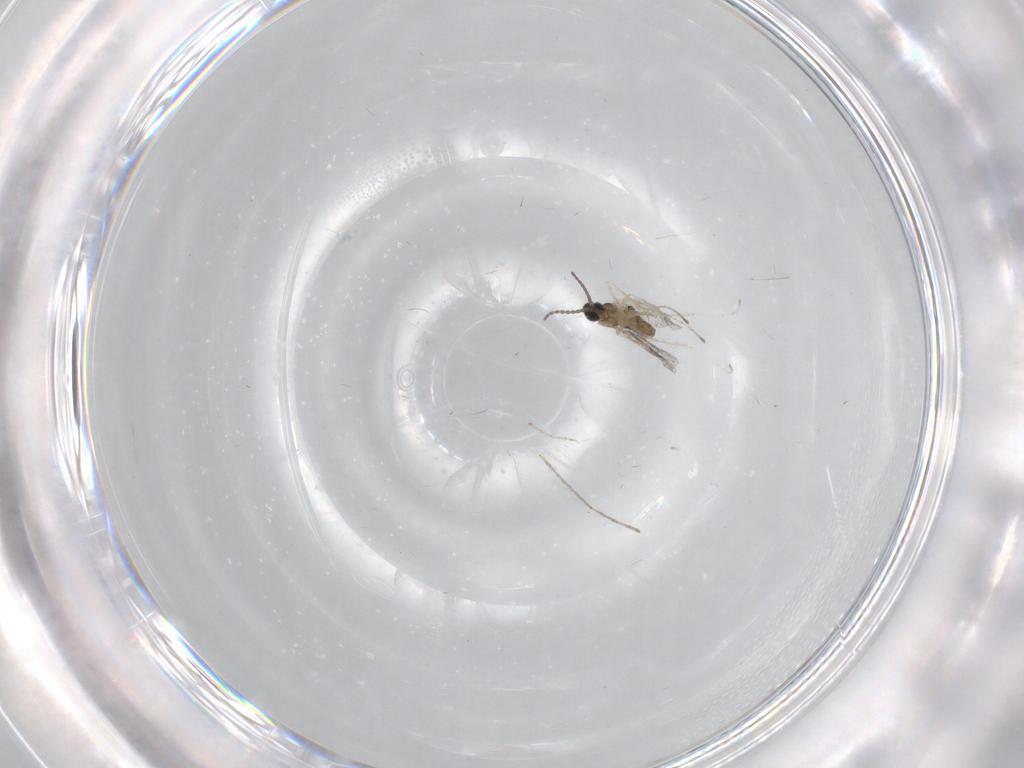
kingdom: Animalia
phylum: Arthropoda
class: Insecta
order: Diptera
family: Cecidomyiidae
